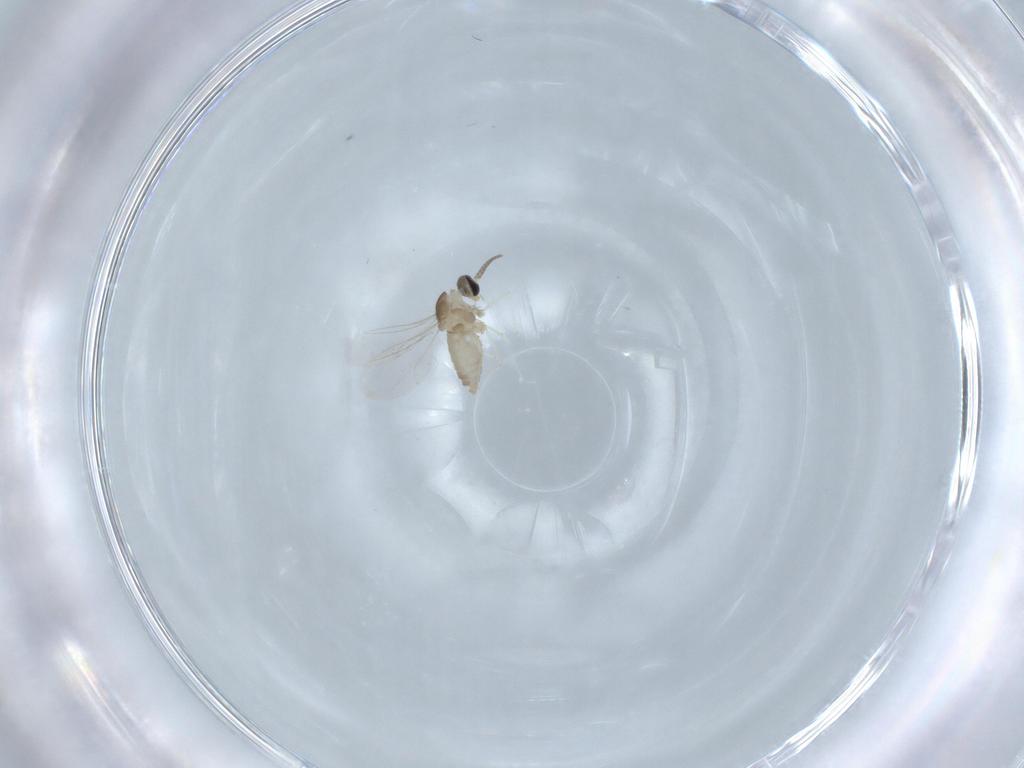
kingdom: Animalia
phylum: Arthropoda
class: Insecta
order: Diptera
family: Cecidomyiidae
